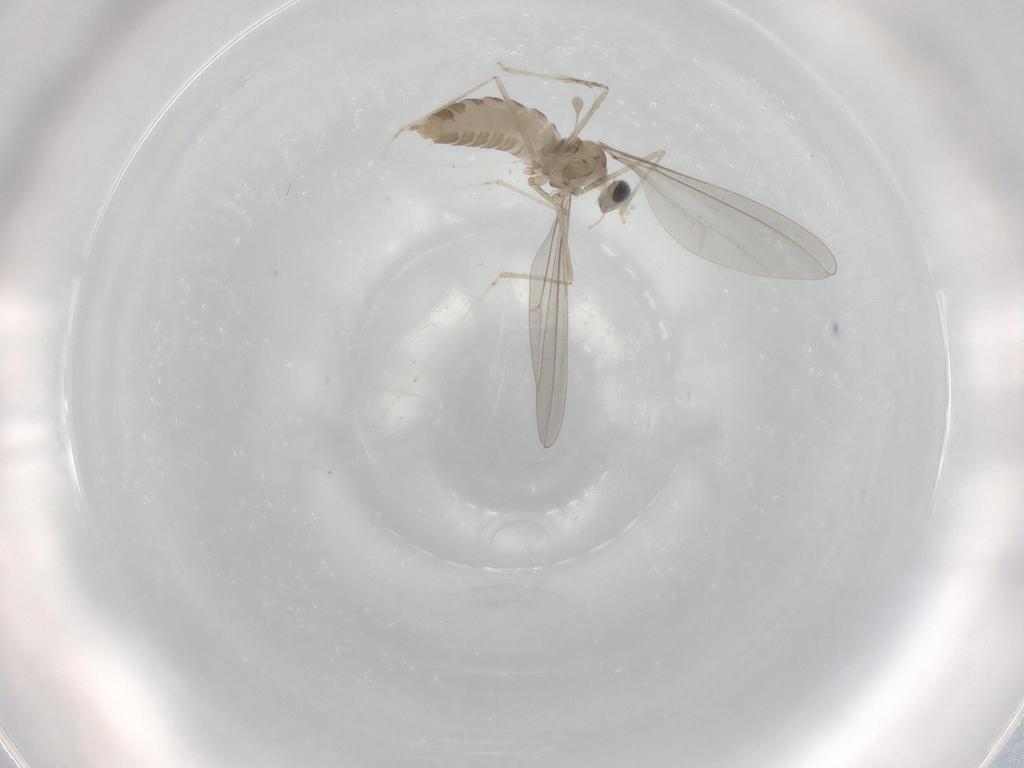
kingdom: Animalia
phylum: Arthropoda
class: Insecta
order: Diptera
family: Cecidomyiidae
